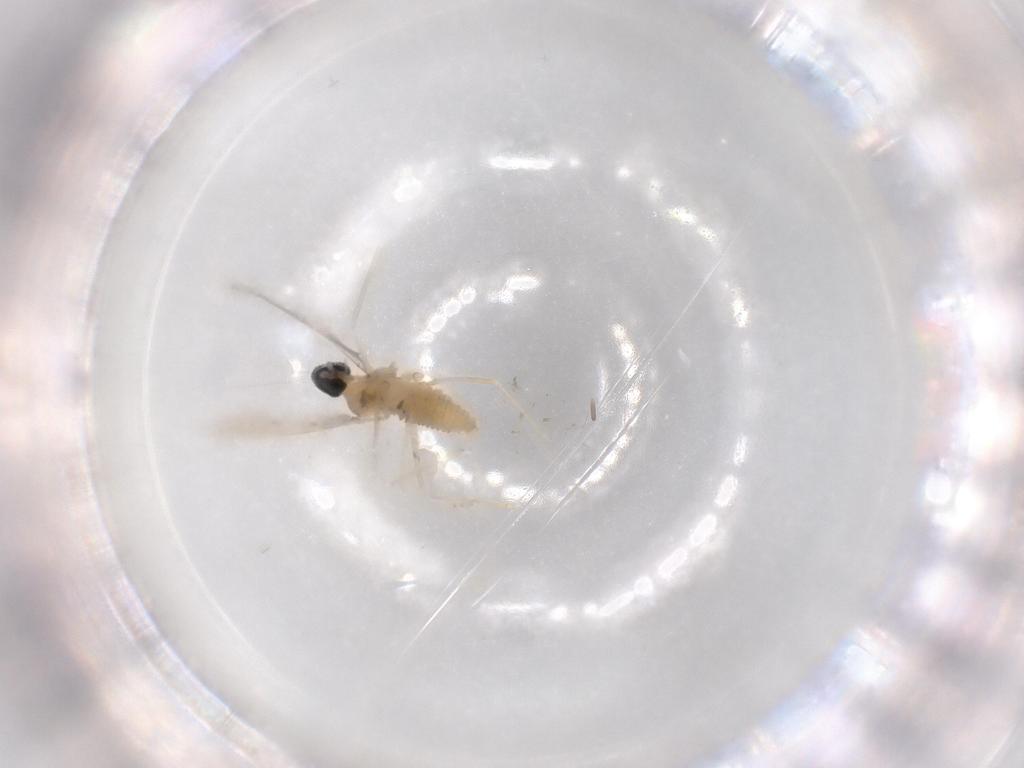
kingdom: Animalia
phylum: Arthropoda
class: Insecta
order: Diptera
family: Cecidomyiidae
